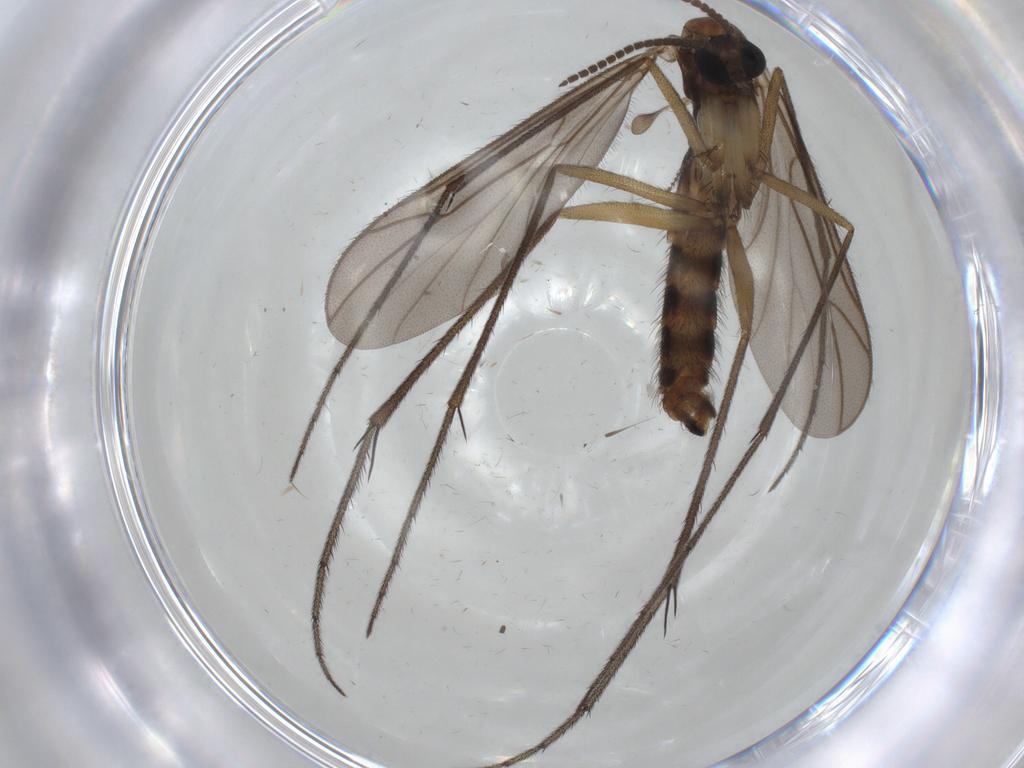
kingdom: Animalia
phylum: Arthropoda
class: Insecta
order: Diptera
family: Ditomyiidae
